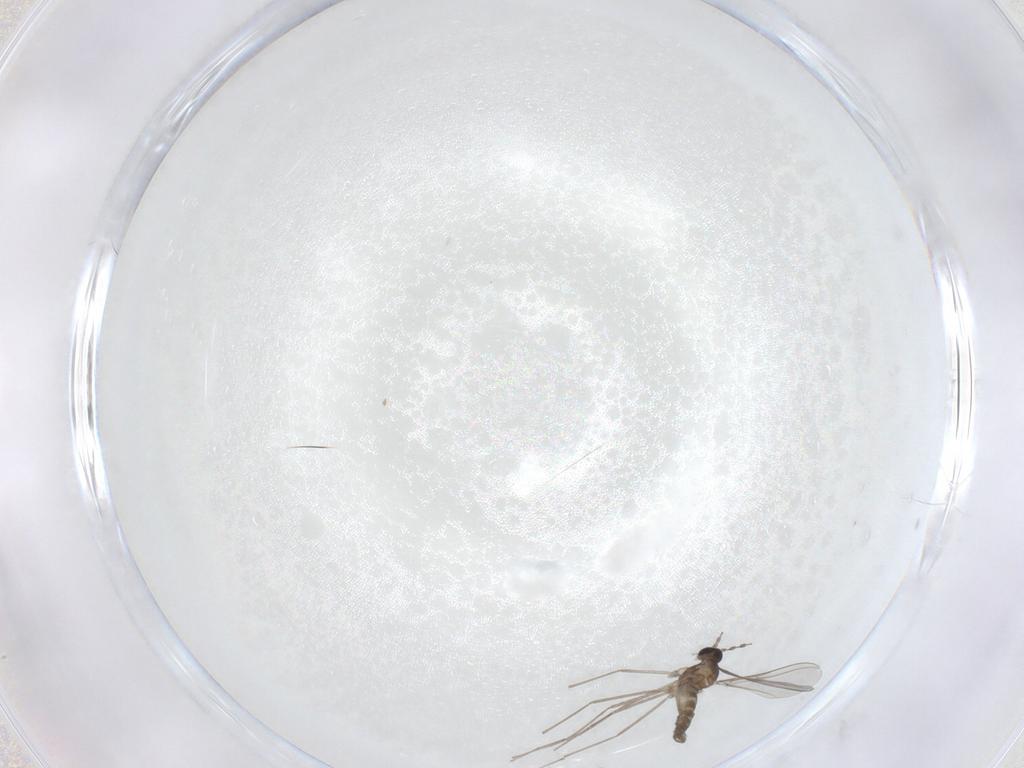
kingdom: Animalia
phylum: Arthropoda
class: Insecta
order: Diptera
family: Chironomidae
